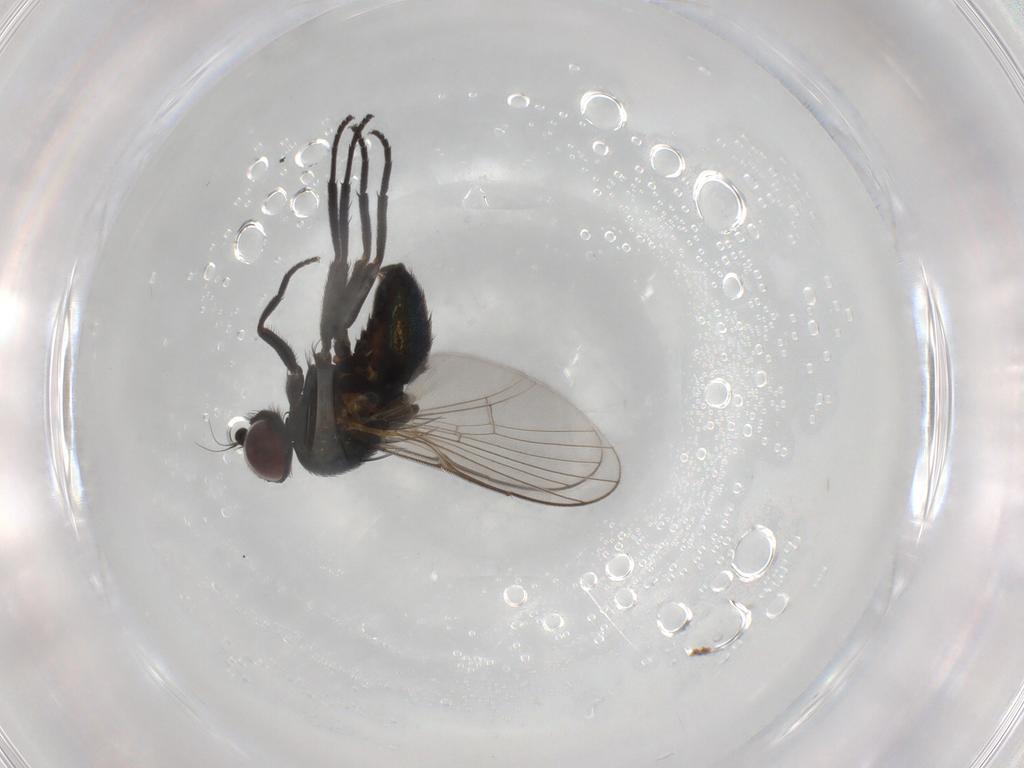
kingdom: Animalia
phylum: Arthropoda
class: Insecta
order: Diptera
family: Agromyzidae
